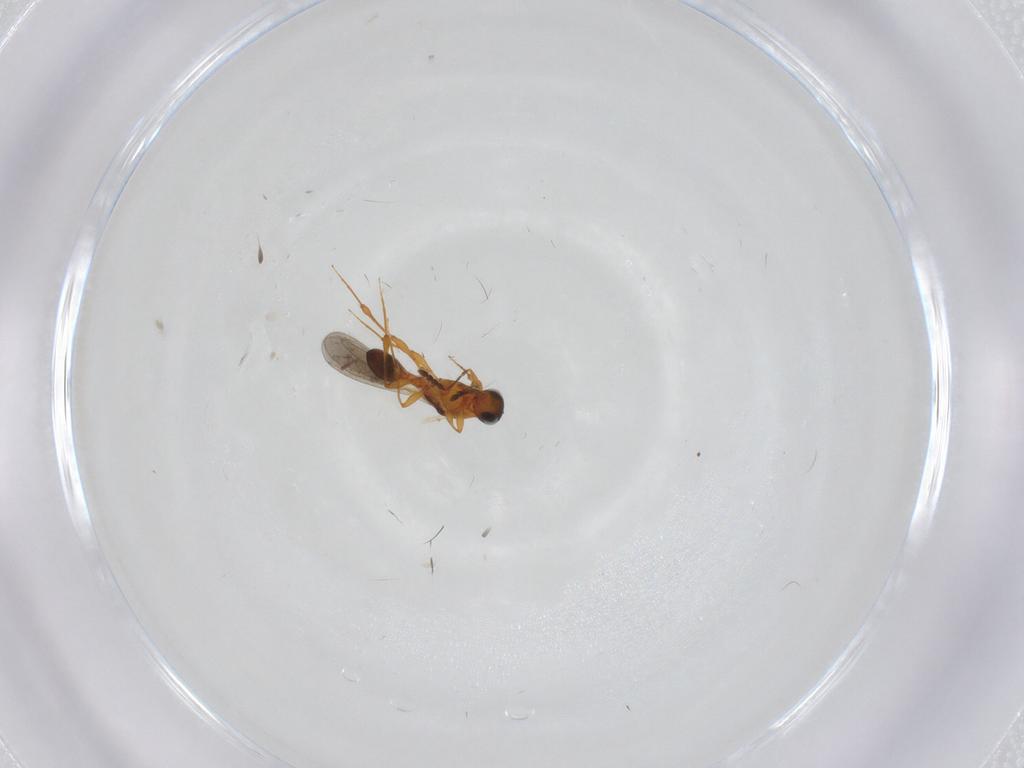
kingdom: Animalia
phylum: Arthropoda
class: Insecta
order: Hymenoptera
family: Platygastridae
